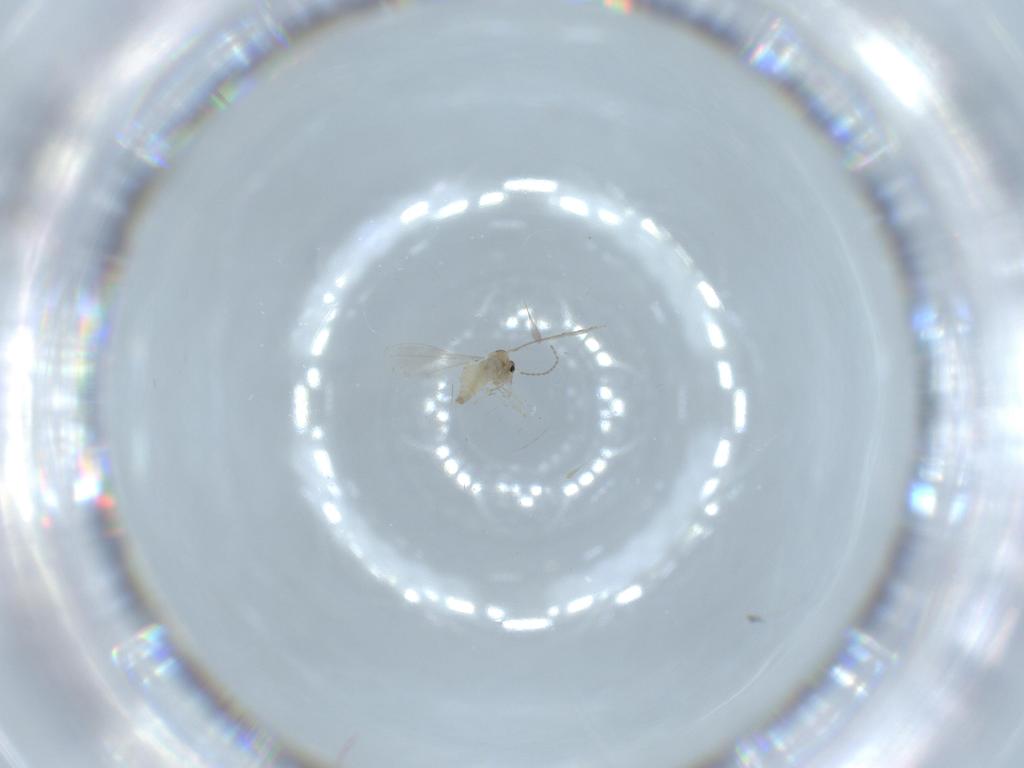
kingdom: Animalia
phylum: Arthropoda
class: Insecta
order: Diptera
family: Cecidomyiidae
